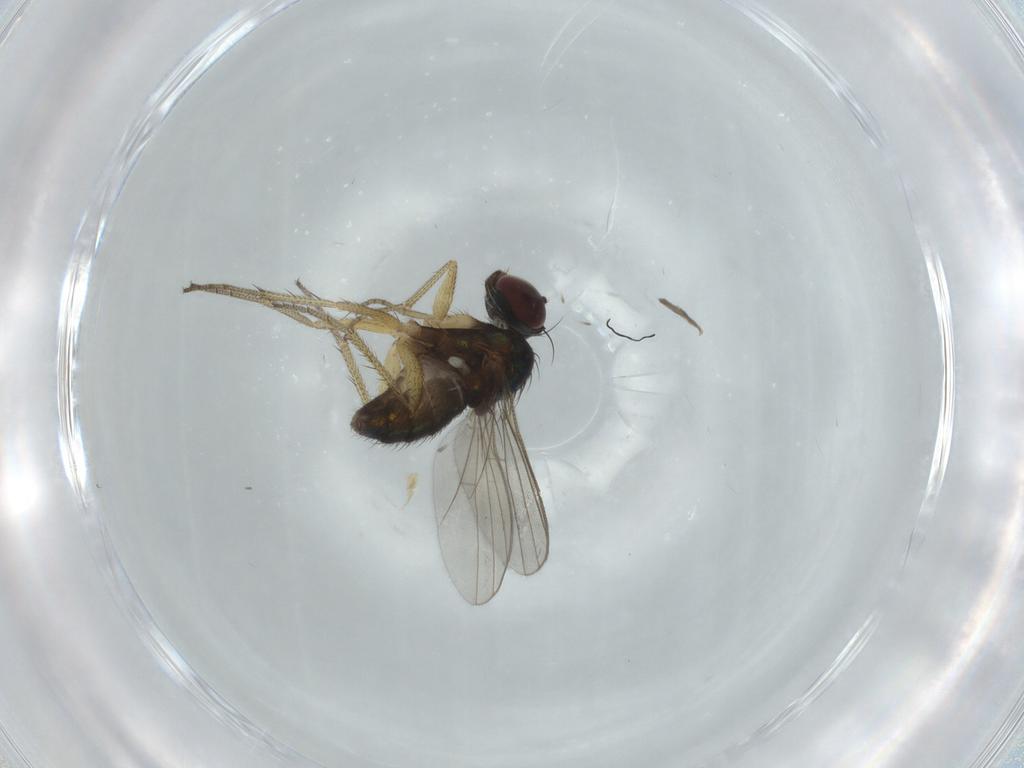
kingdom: Animalia
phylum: Arthropoda
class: Insecta
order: Diptera
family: Dolichopodidae
